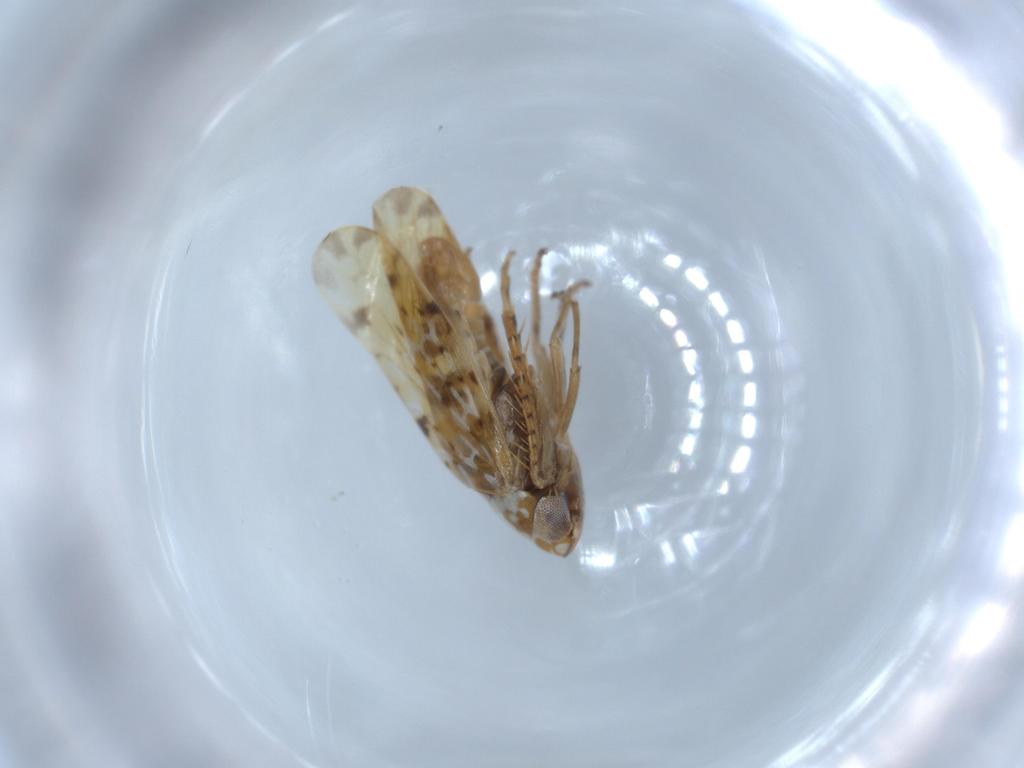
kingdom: Animalia
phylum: Arthropoda
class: Insecta
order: Hemiptera
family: Cicadellidae
